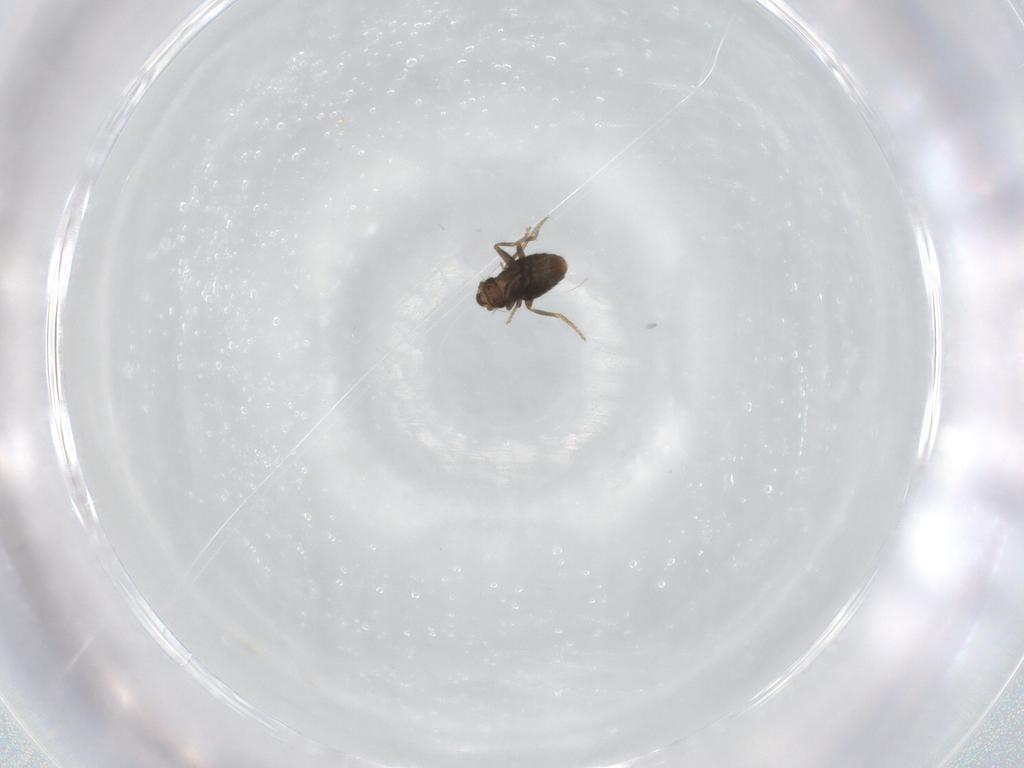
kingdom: Animalia
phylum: Arthropoda
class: Insecta
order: Diptera
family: Phoridae
